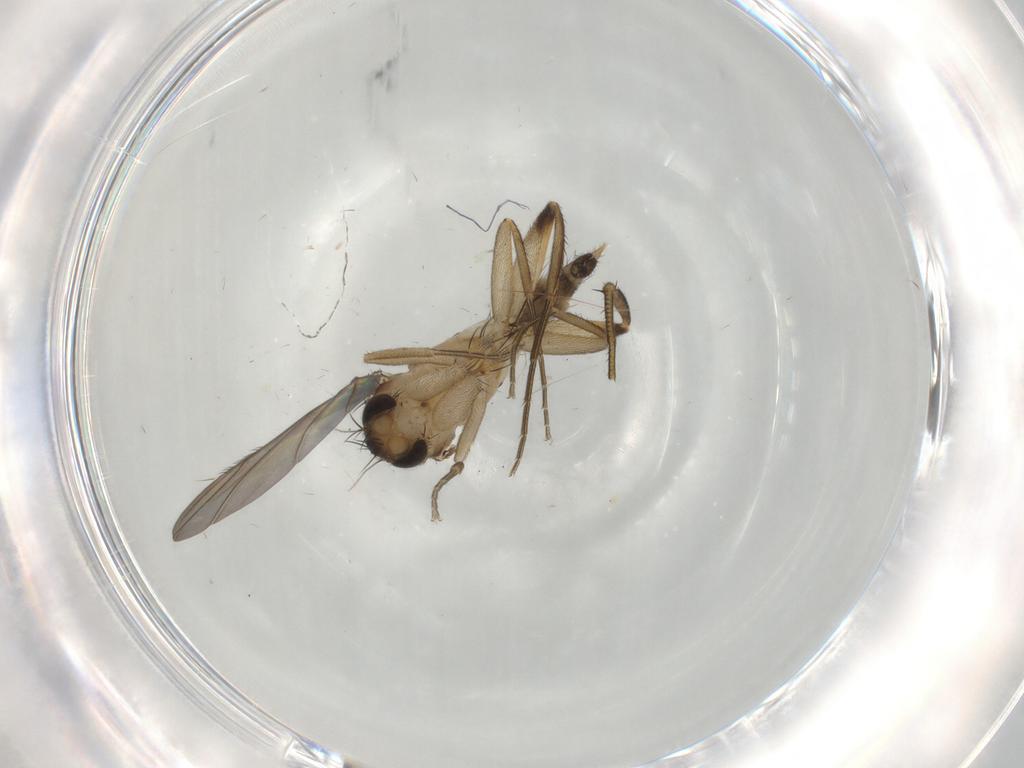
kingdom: Animalia
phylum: Arthropoda
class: Insecta
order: Diptera
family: Phoridae
